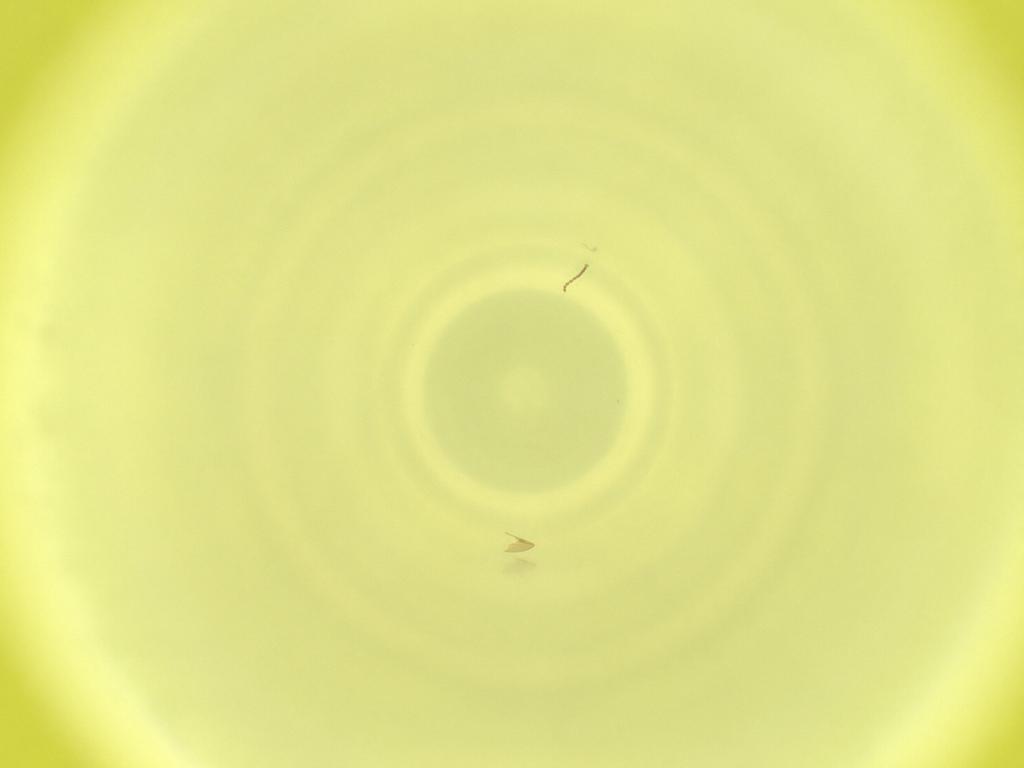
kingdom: Animalia
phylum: Arthropoda
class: Insecta
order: Diptera
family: Cecidomyiidae
